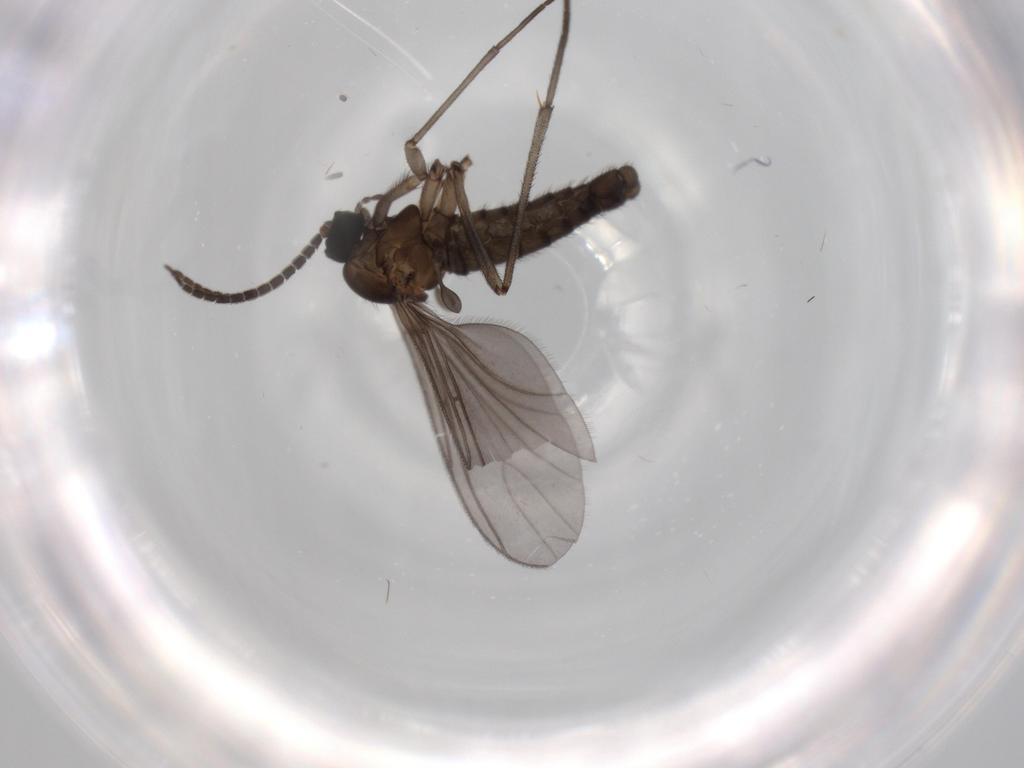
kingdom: Animalia
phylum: Arthropoda
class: Insecta
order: Diptera
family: Sciaridae
